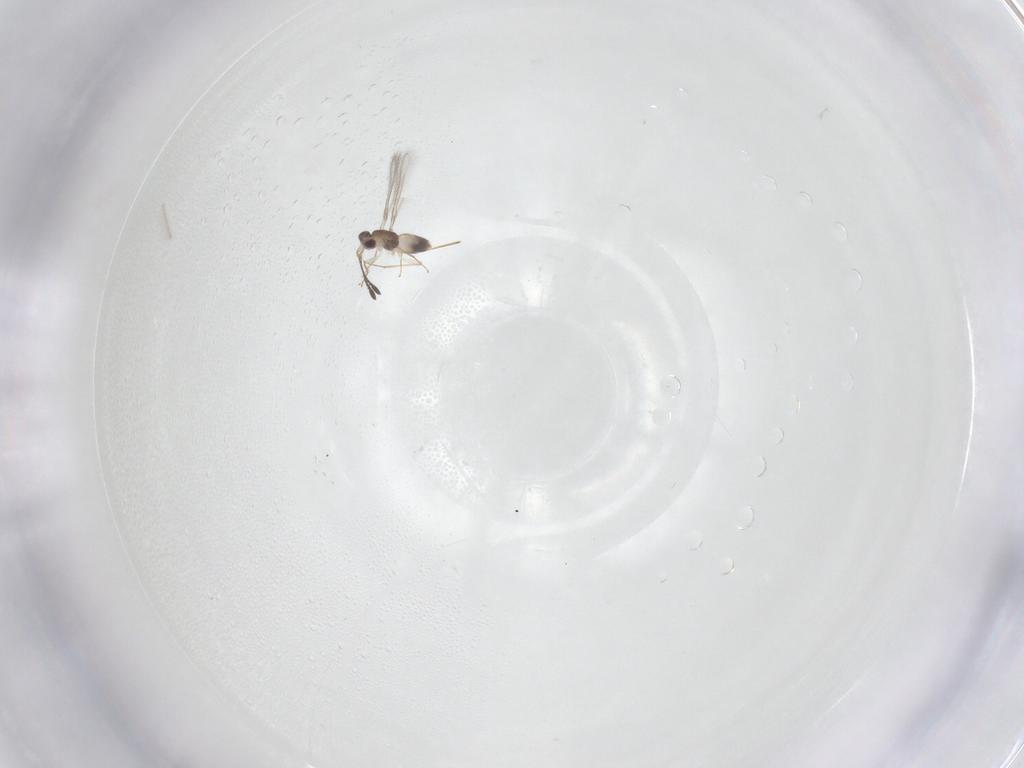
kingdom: Animalia
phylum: Arthropoda
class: Insecta
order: Hymenoptera
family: Mymaridae
